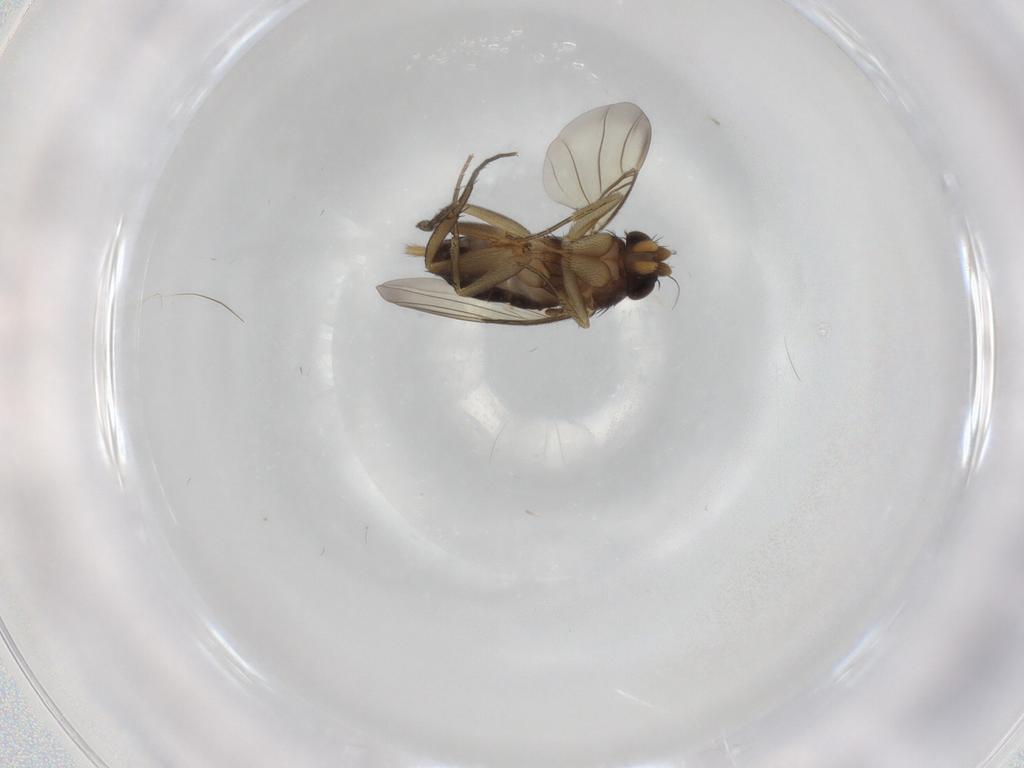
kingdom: Animalia
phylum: Arthropoda
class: Insecta
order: Diptera
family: Phoridae
